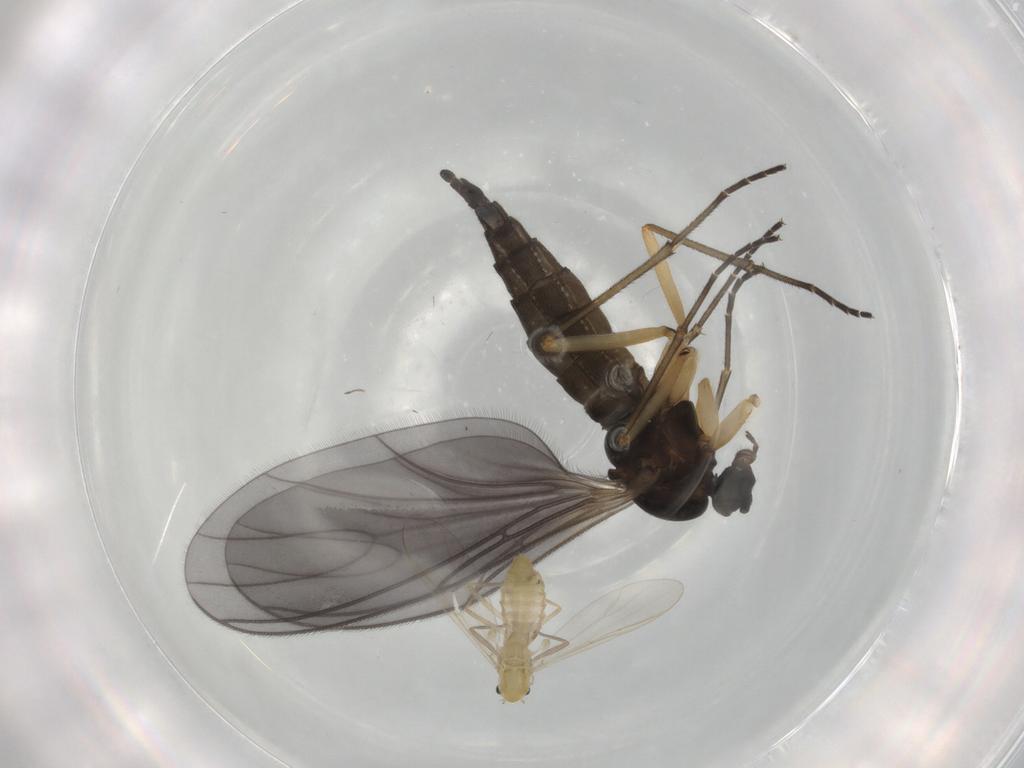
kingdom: Animalia
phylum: Arthropoda
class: Insecta
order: Diptera
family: Sciaridae
